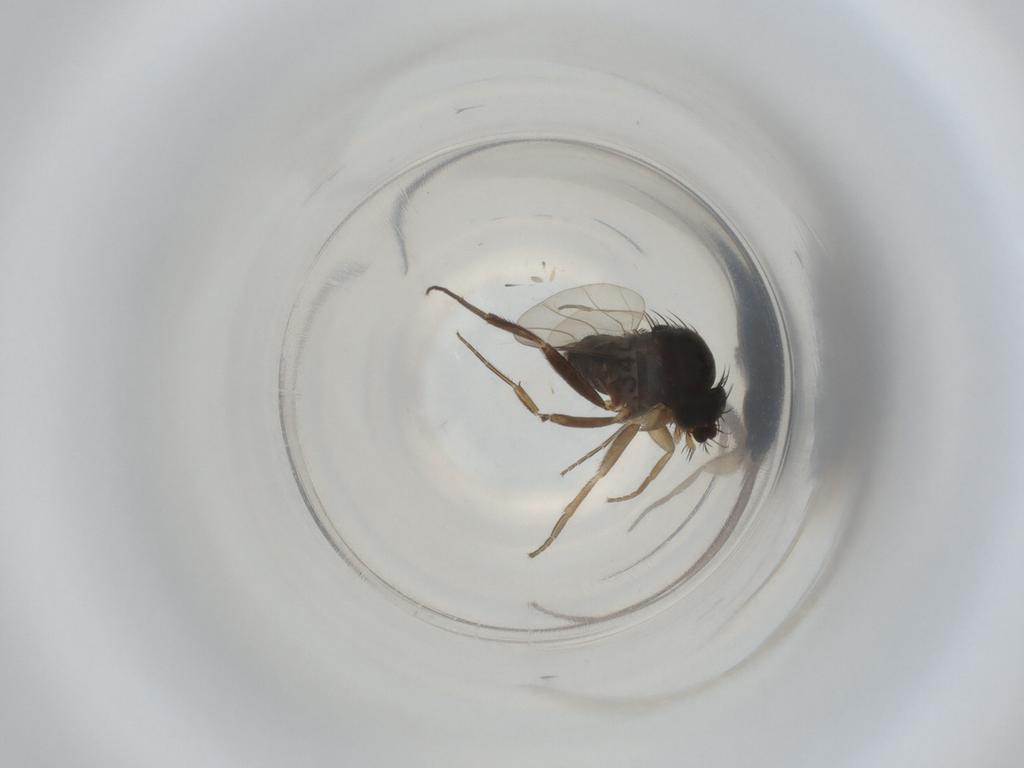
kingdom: Animalia
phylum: Arthropoda
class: Insecta
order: Diptera
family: Phoridae
